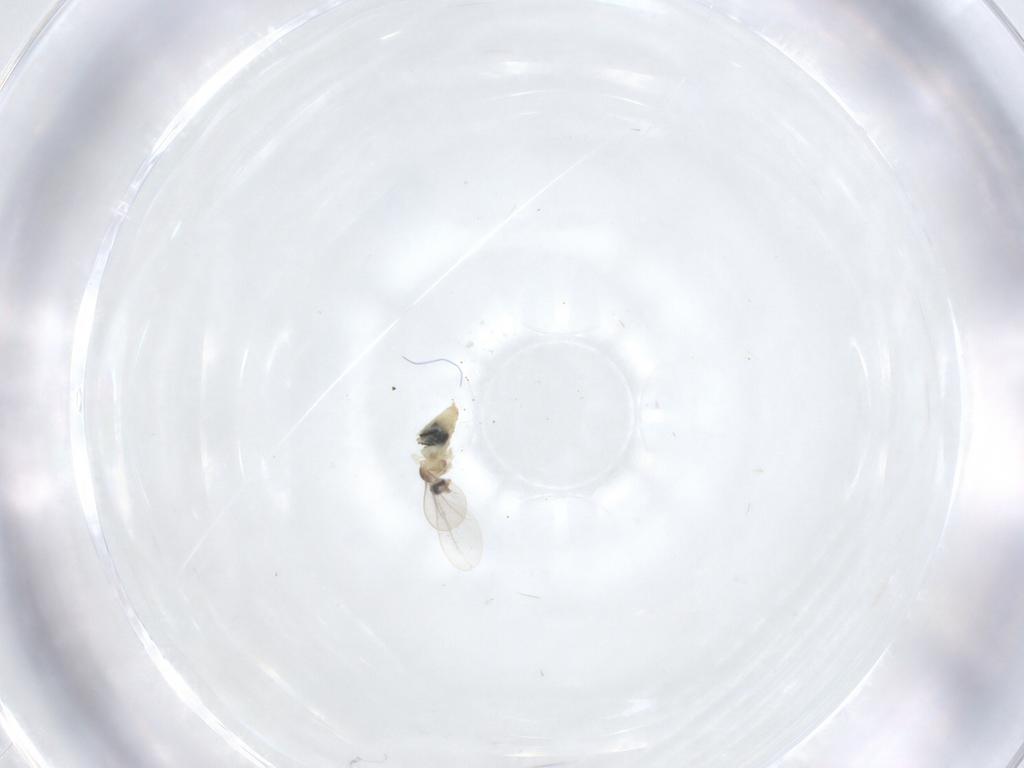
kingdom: Animalia
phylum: Arthropoda
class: Insecta
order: Diptera
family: Cecidomyiidae
